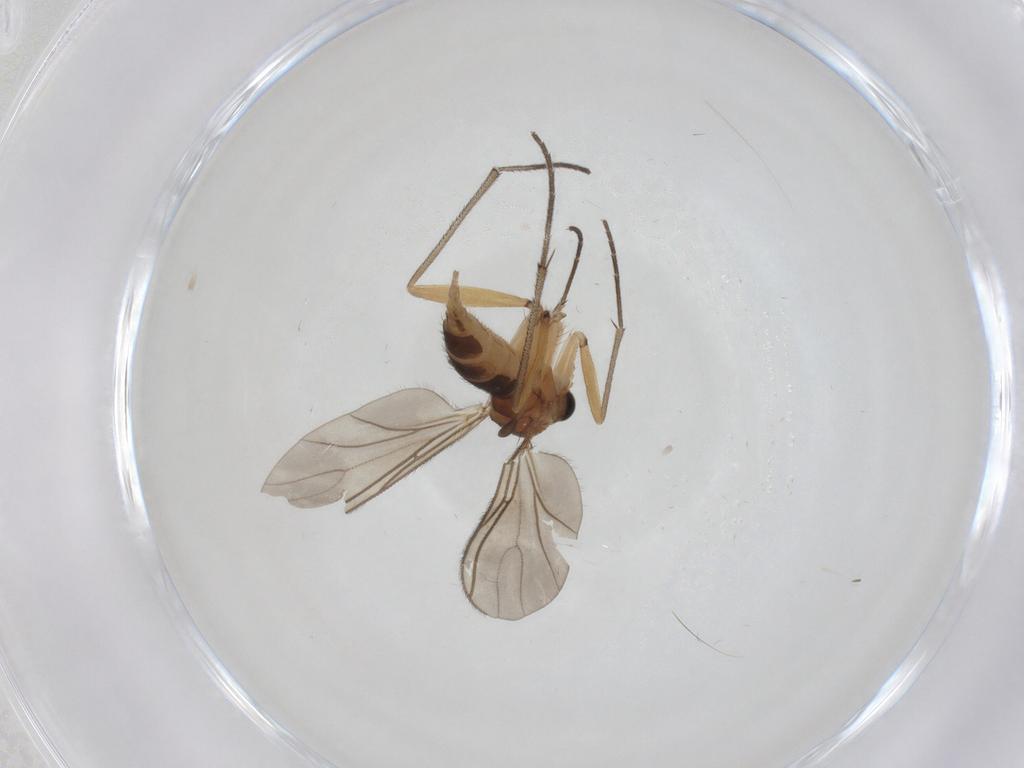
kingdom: Animalia
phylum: Arthropoda
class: Insecta
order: Diptera
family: Sciaridae
